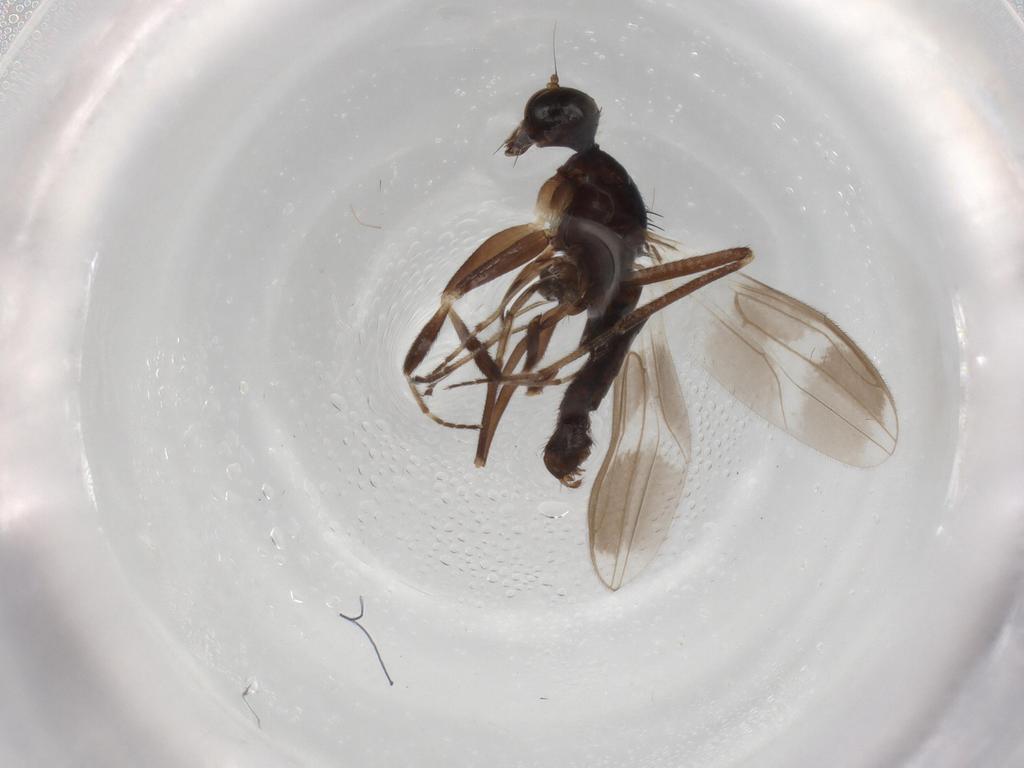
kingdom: Animalia
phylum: Arthropoda
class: Insecta
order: Diptera
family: Hybotidae
